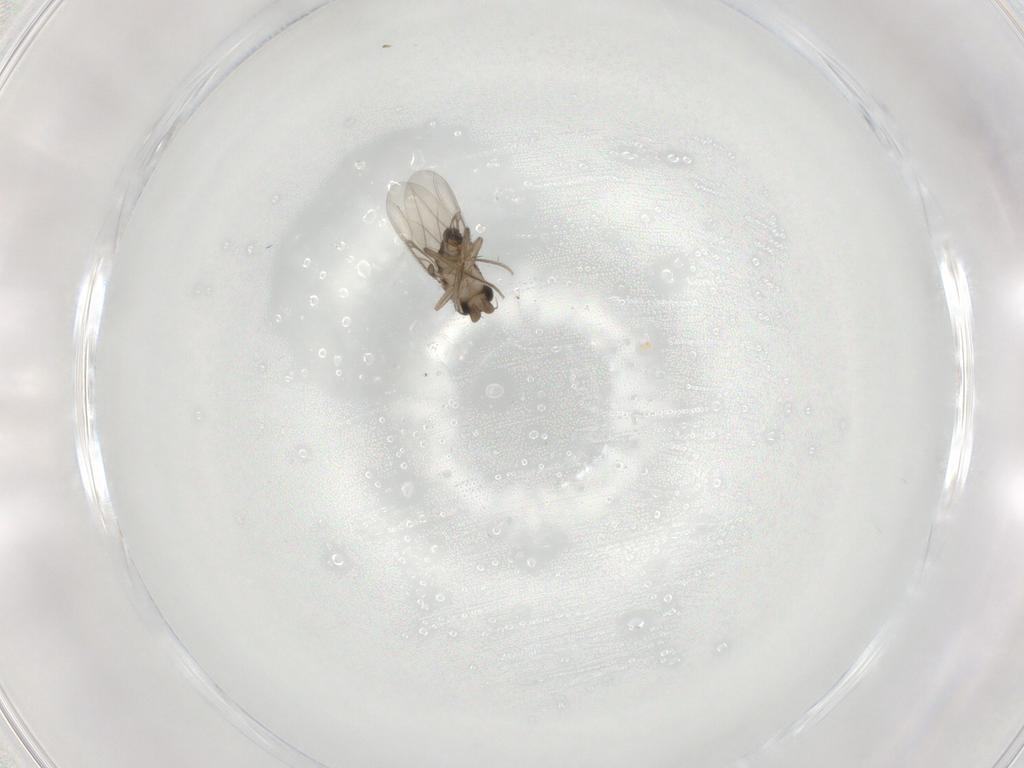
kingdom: Animalia
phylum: Arthropoda
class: Insecta
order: Diptera
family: Phoridae
